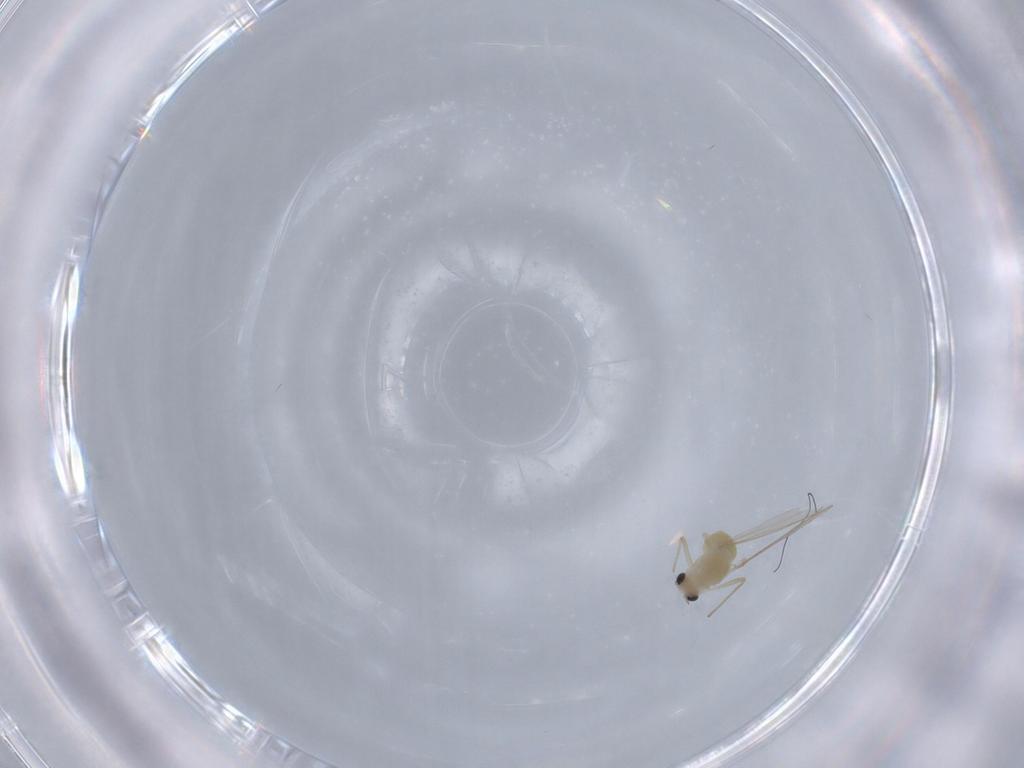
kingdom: Animalia
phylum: Arthropoda
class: Insecta
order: Diptera
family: Chironomidae
